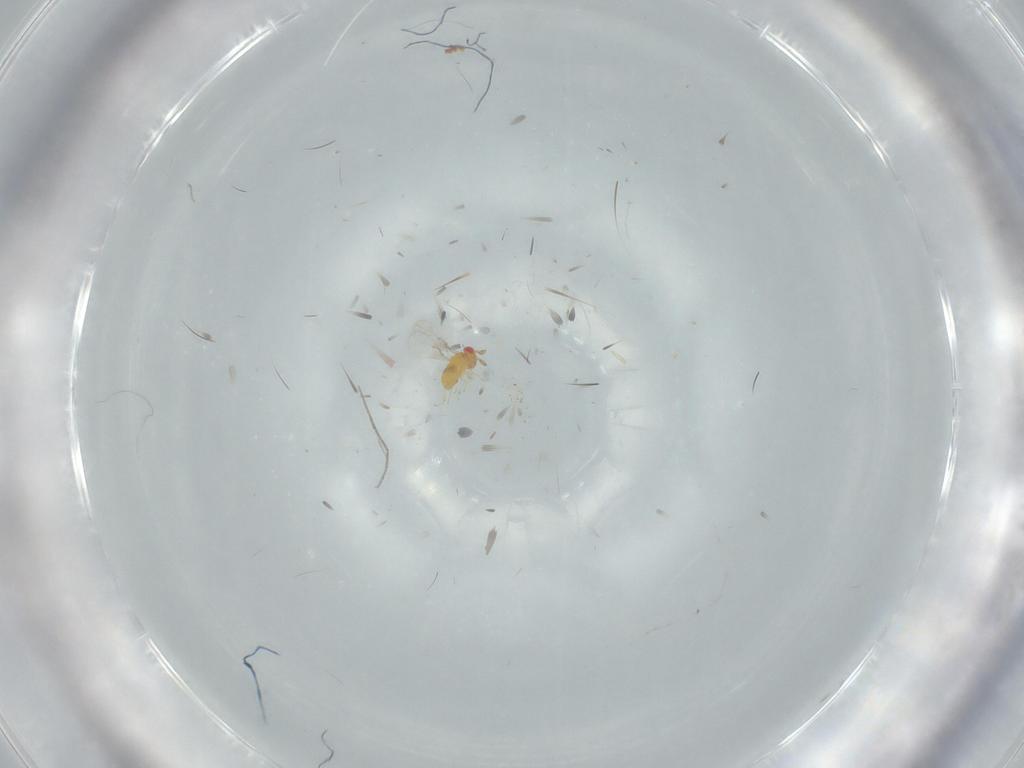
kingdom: Animalia
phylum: Arthropoda
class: Insecta
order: Hymenoptera
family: Trichogrammatidae
